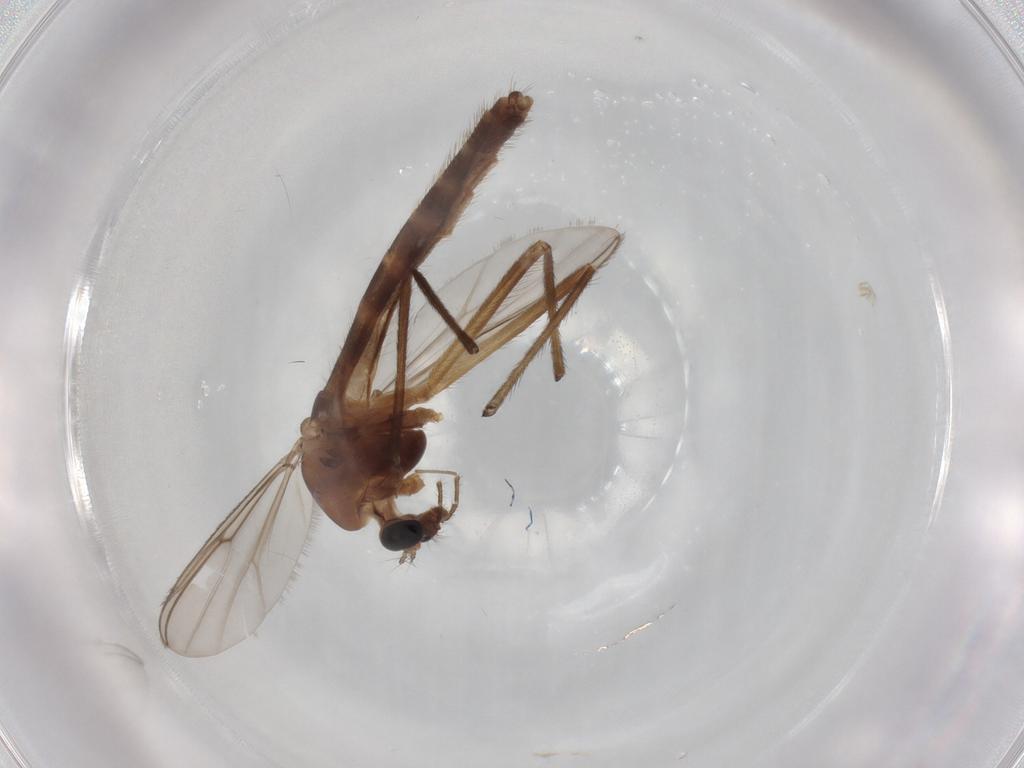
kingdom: Animalia
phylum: Arthropoda
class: Insecta
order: Diptera
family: Chironomidae
